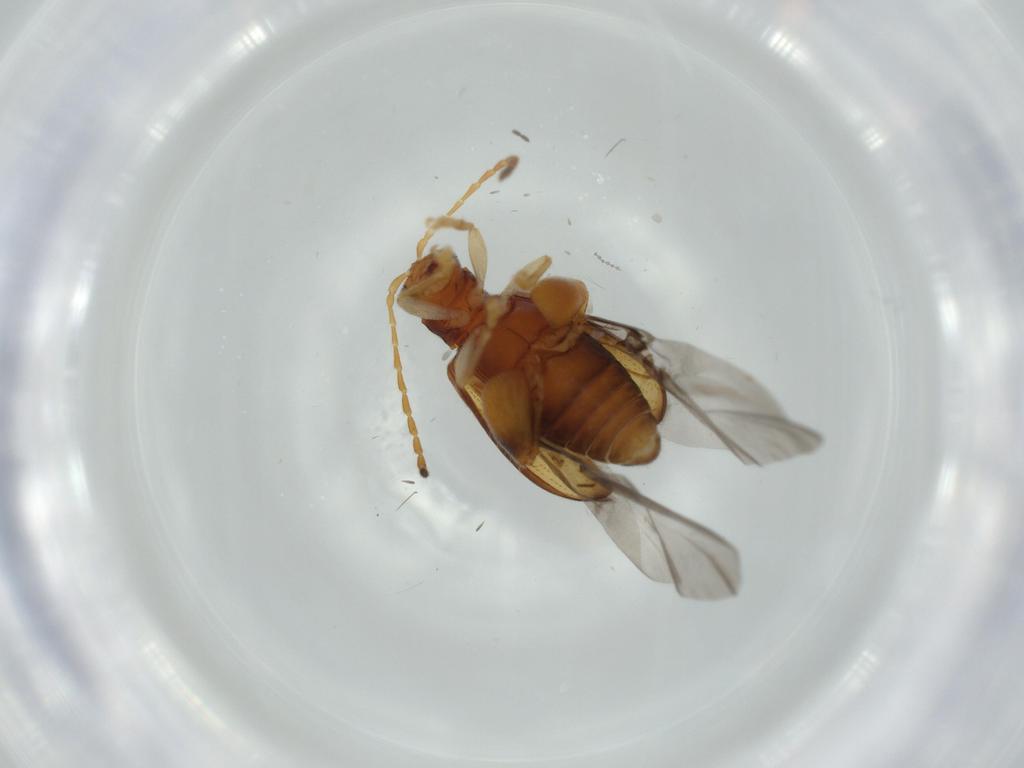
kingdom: Animalia
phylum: Arthropoda
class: Insecta
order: Coleoptera
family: Chrysomelidae
